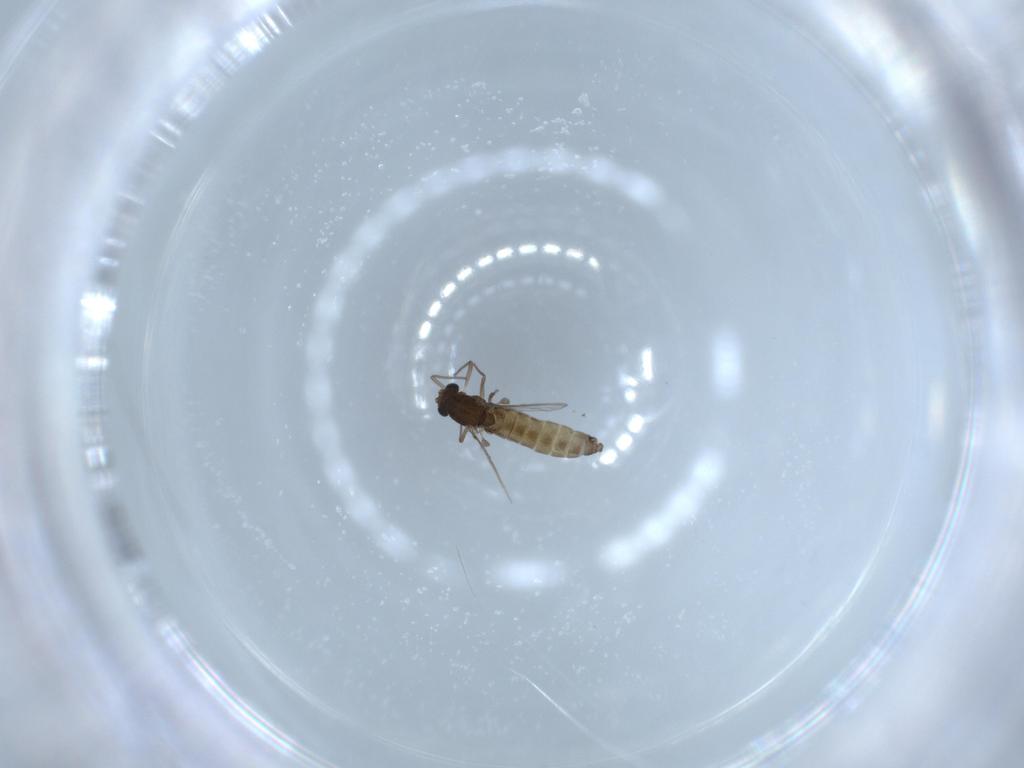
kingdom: Animalia
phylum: Arthropoda
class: Insecta
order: Diptera
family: Chironomidae
